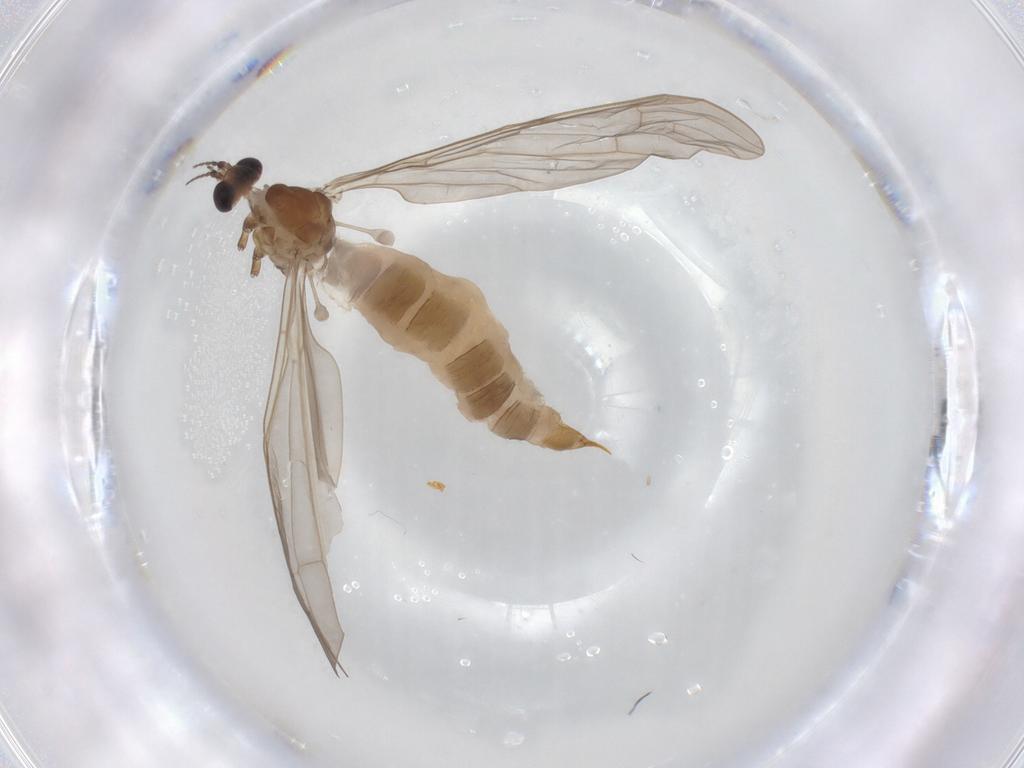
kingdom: Animalia
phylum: Arthropoda
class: Insecta
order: Diptera
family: Limoniidae
